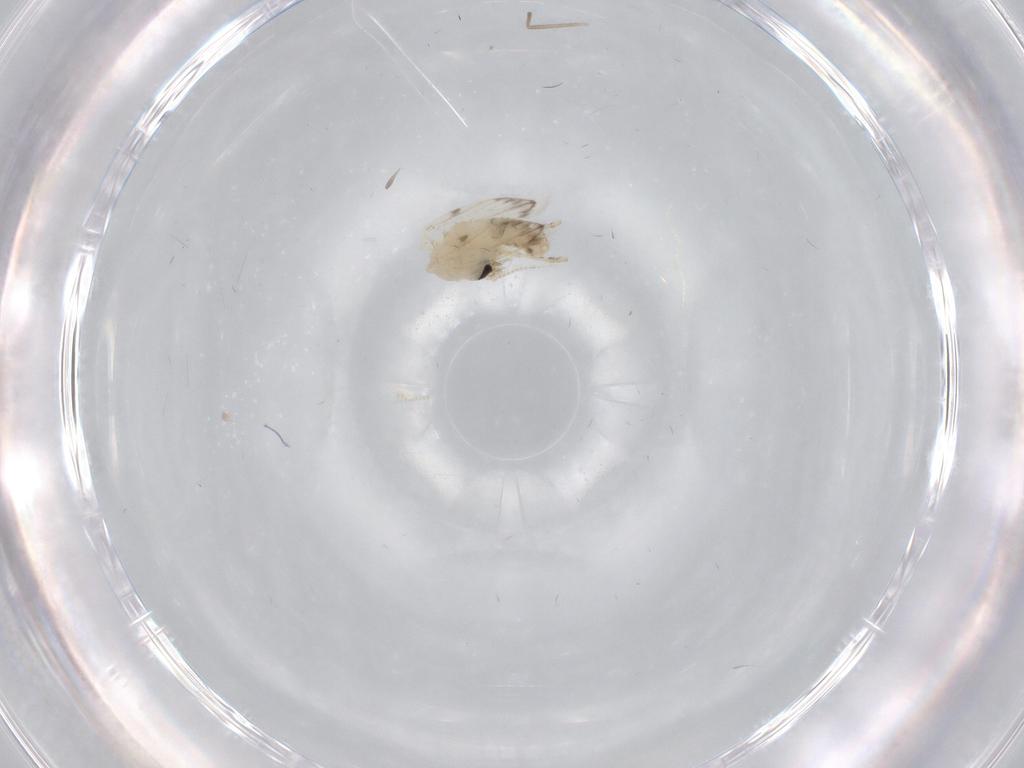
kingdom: Animalia
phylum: Arthropoda
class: Insecta
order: Diptera
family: Psychodidae
